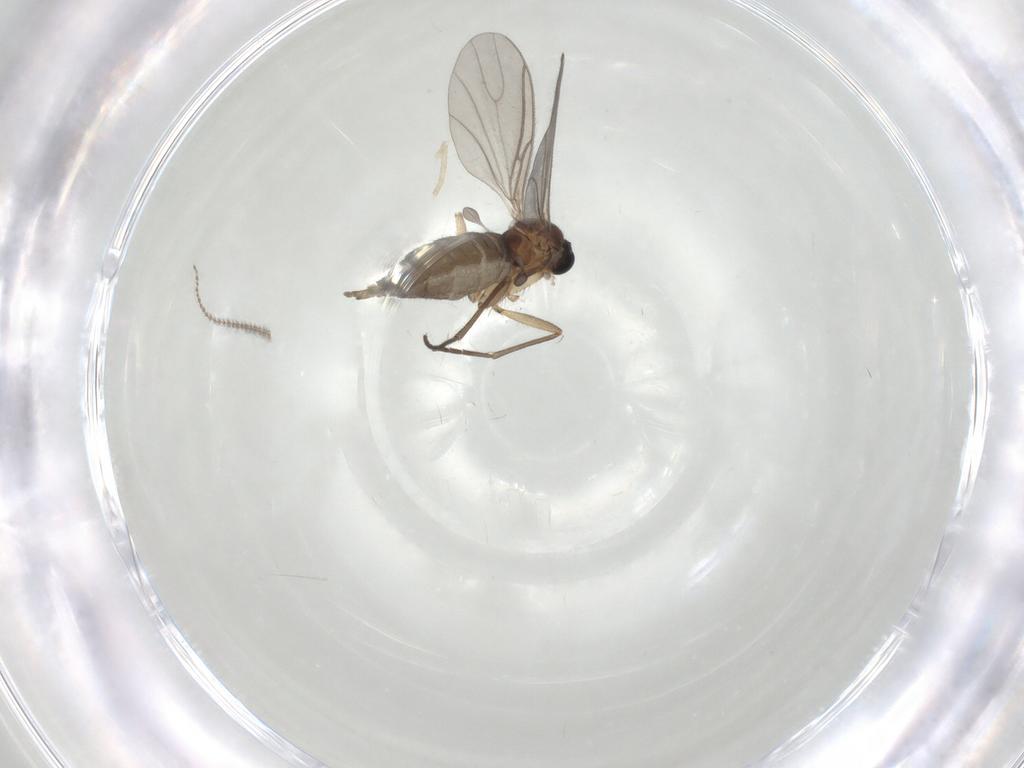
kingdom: Animalia
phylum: Arthropoda
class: Insecta
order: Diptera
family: Sciaridae
